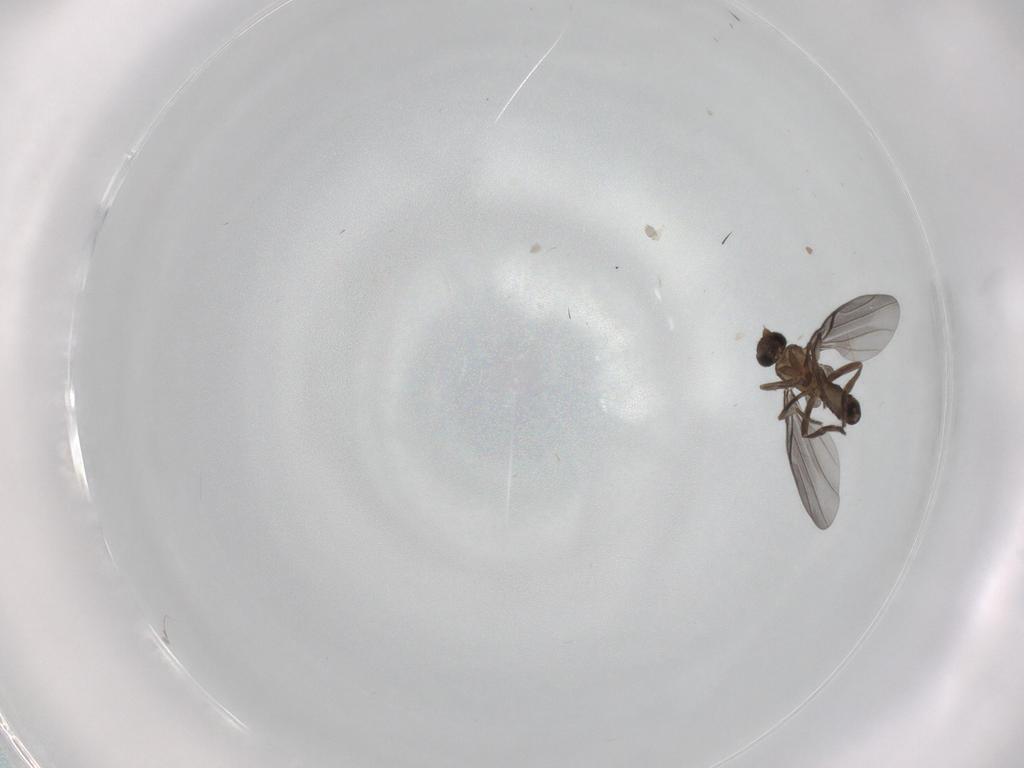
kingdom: Animalia
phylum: Arthropoda
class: Insecta
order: Diptera
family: Phoridae
